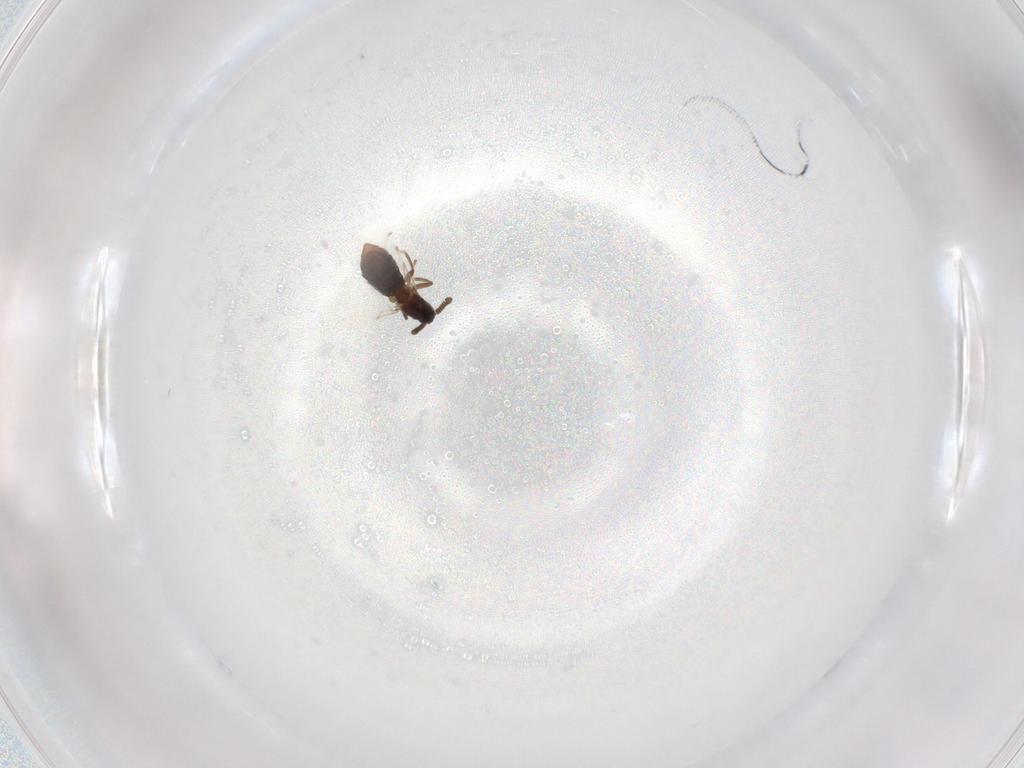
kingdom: Animalia
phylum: Arthropoda
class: Insecta
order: Diptera
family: Scatopsidae
